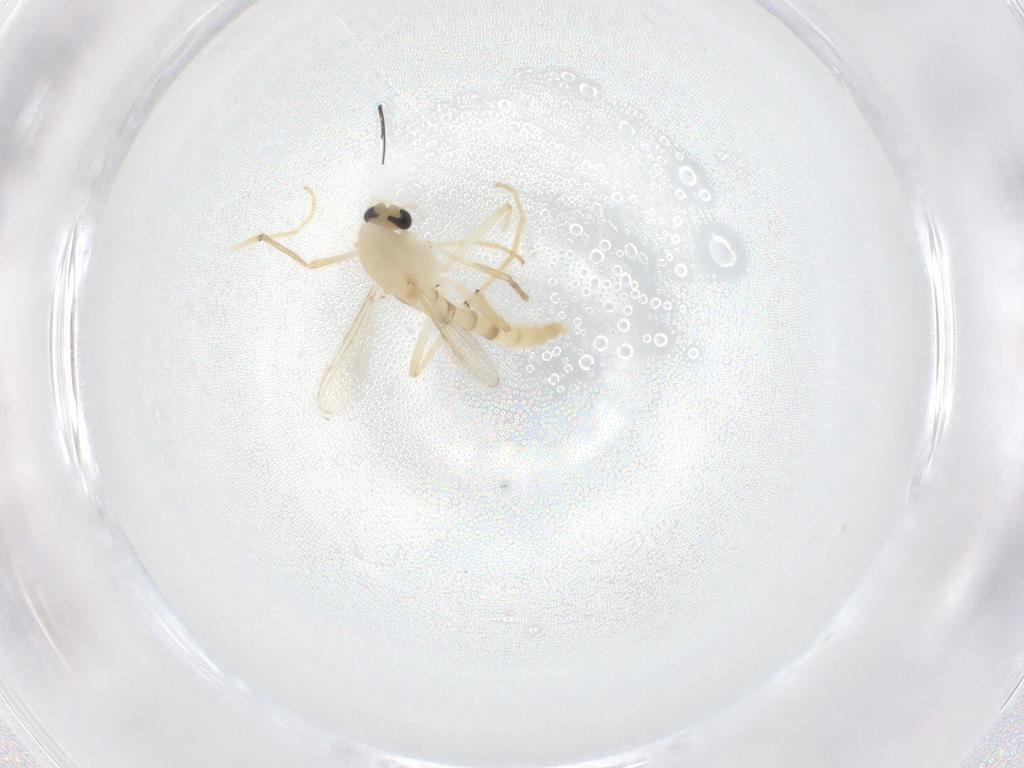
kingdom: Animalia
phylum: Arthropoda
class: Insecta
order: Diptera
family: Chironomidae
